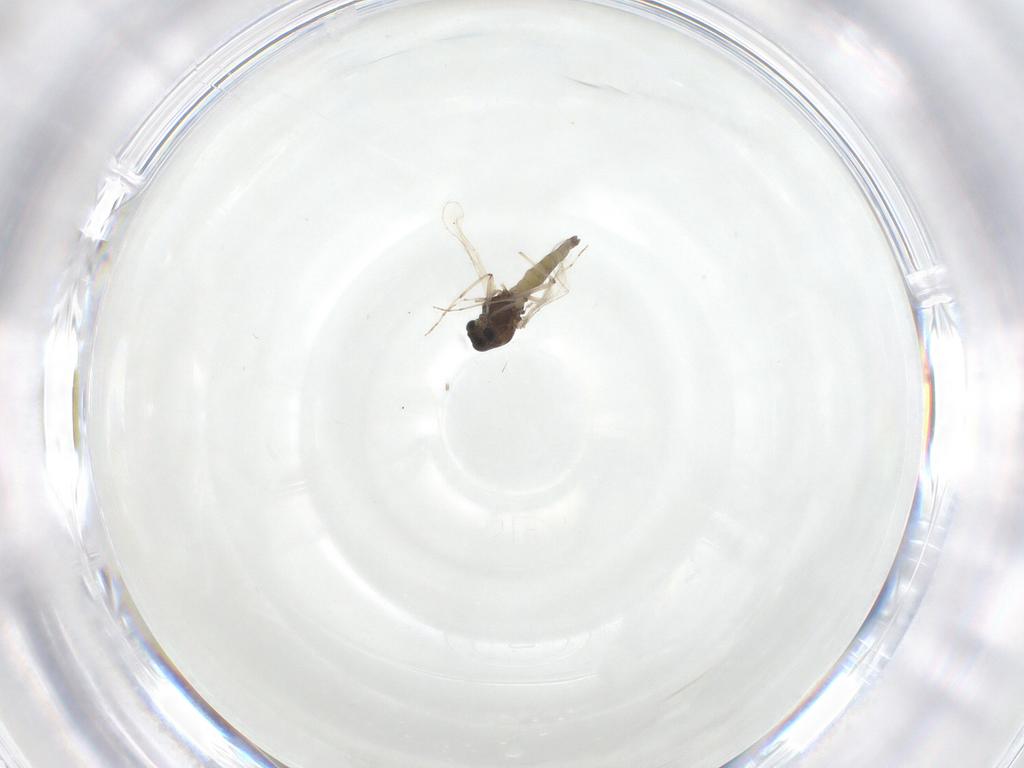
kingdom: Animalia
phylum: Arthropoda
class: Insecta
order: Diptera
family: Chironomidae
